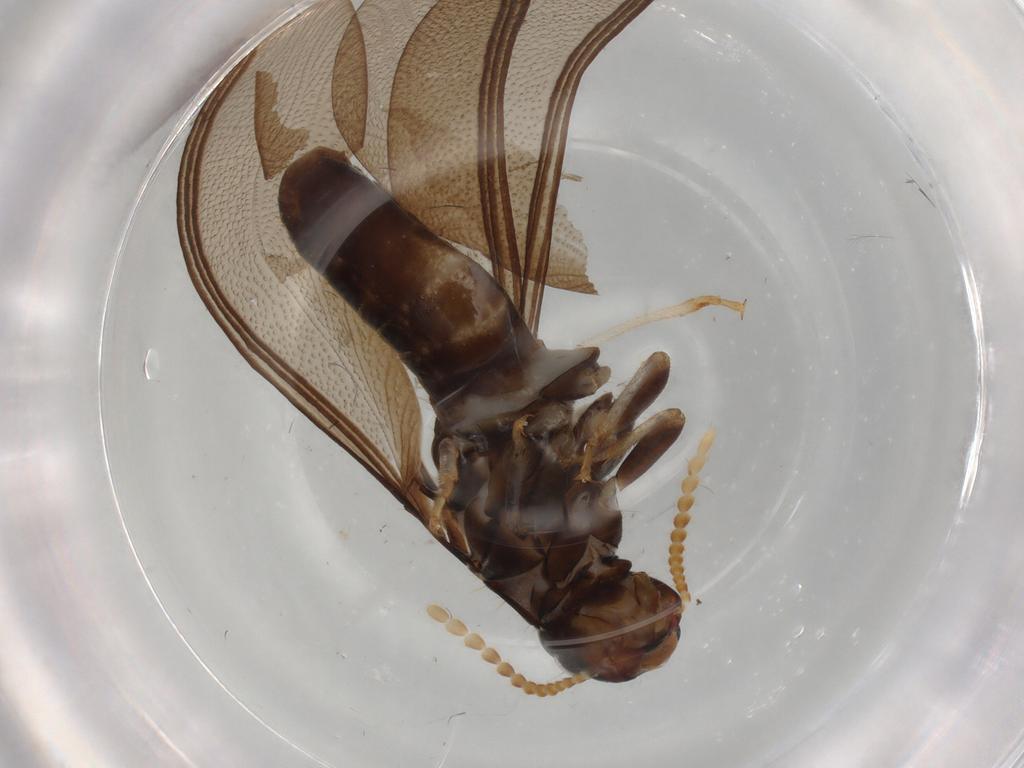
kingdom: Animalia
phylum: Arthropoda
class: Insecta
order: Blattodea
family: Kalotermitidae
